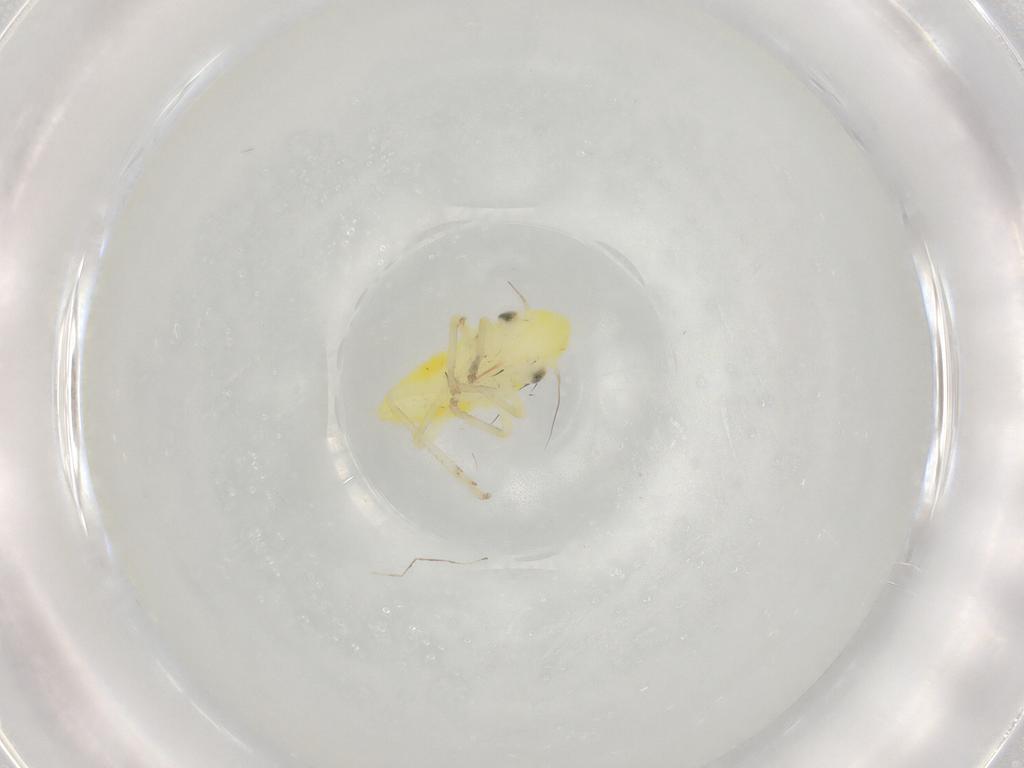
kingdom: Animalia
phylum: Arthropoda
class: Insecta
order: Hemiptera
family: Cicadellidae
